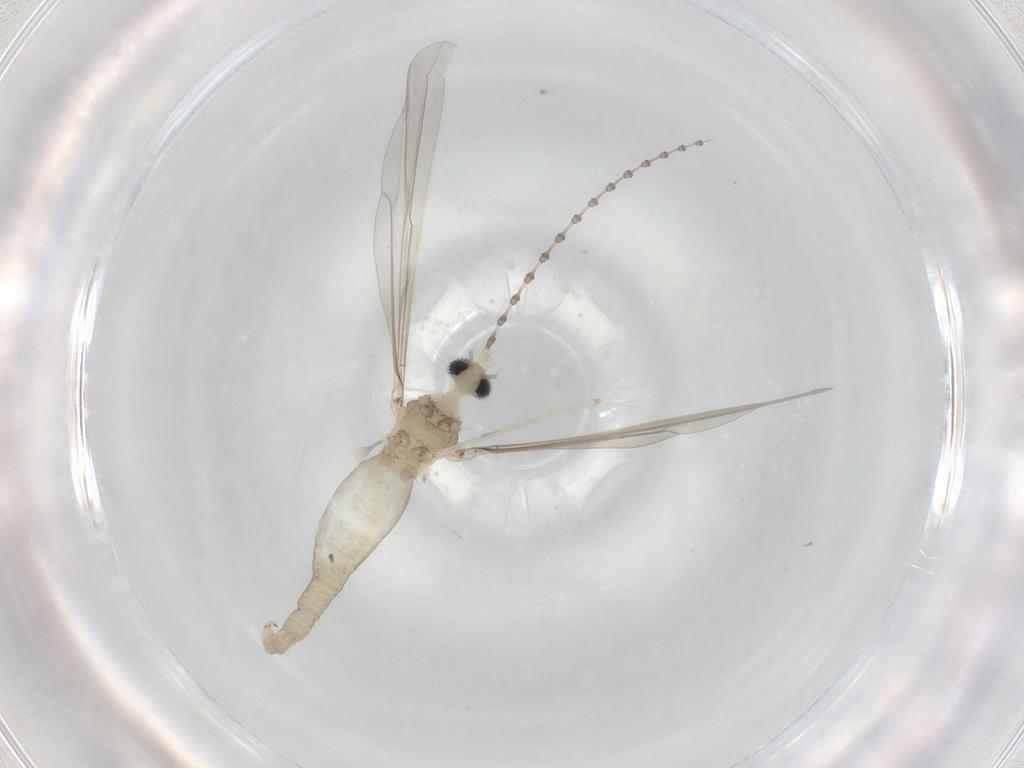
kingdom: Animalia
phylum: Arthropoda
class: Insecta
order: Diptera
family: Cecidomyiidae
